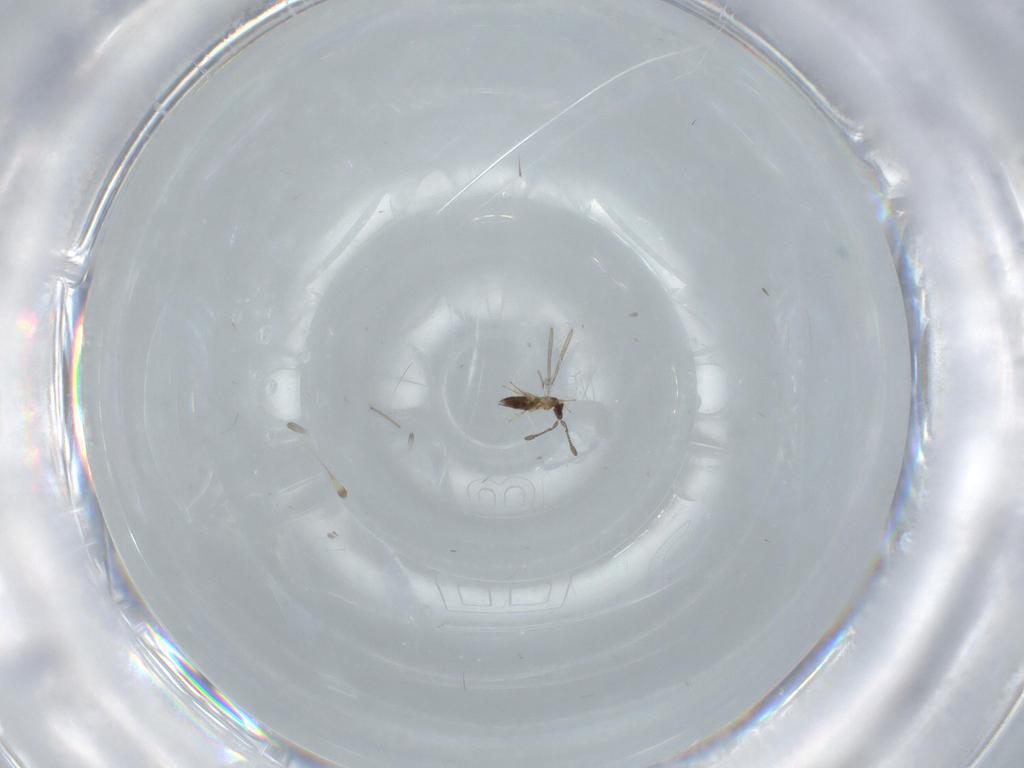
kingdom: Animalia
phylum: Arthropoda
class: Insecta
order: Hymenoptera
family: Mymaridae
